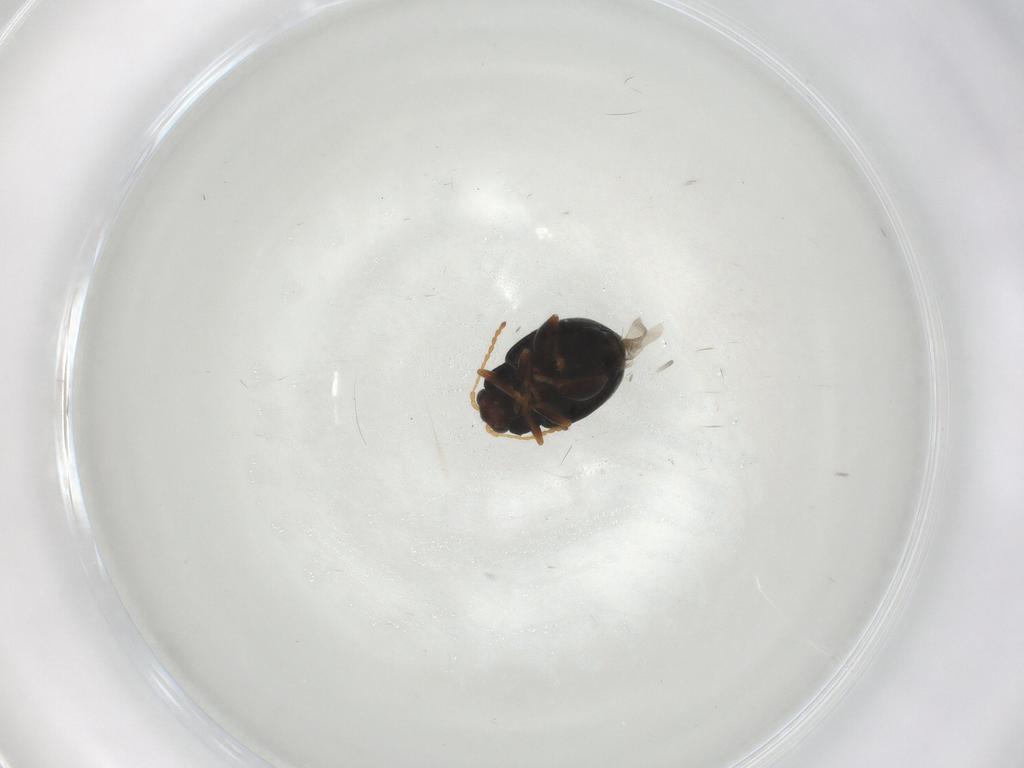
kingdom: Animalia
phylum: Arthropoda
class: Insecta
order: Coleoptera
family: Chrysomelidae
